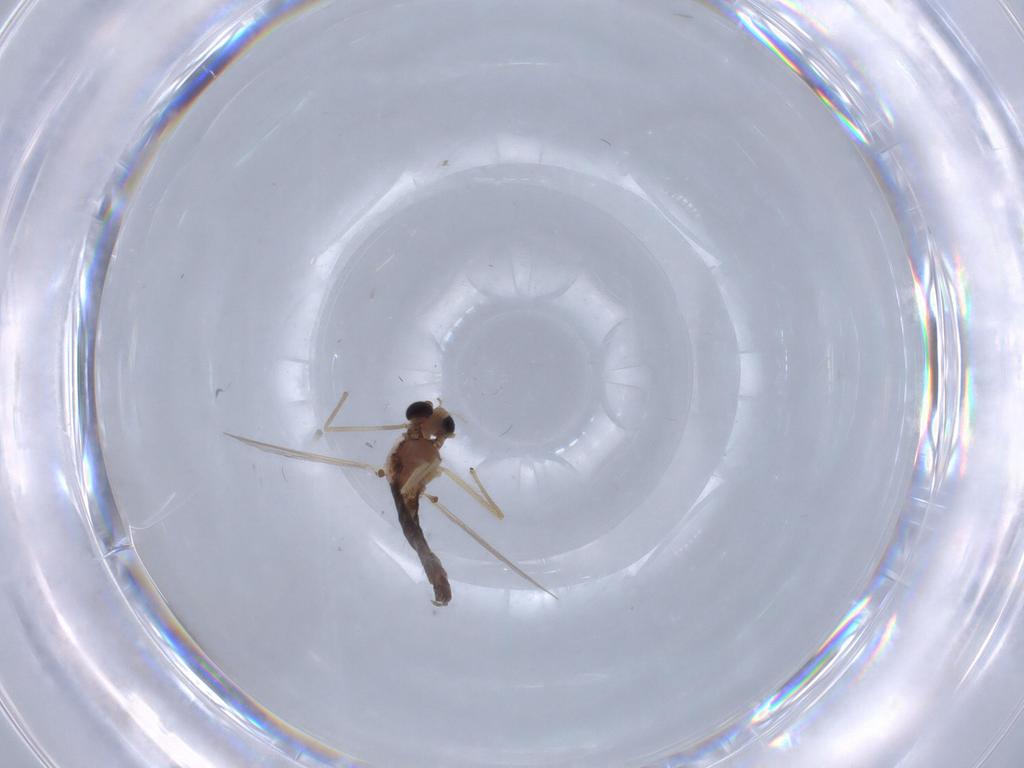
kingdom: Animalia
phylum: Arthropoda
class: Insecta
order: Diptera
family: Chironomidae
